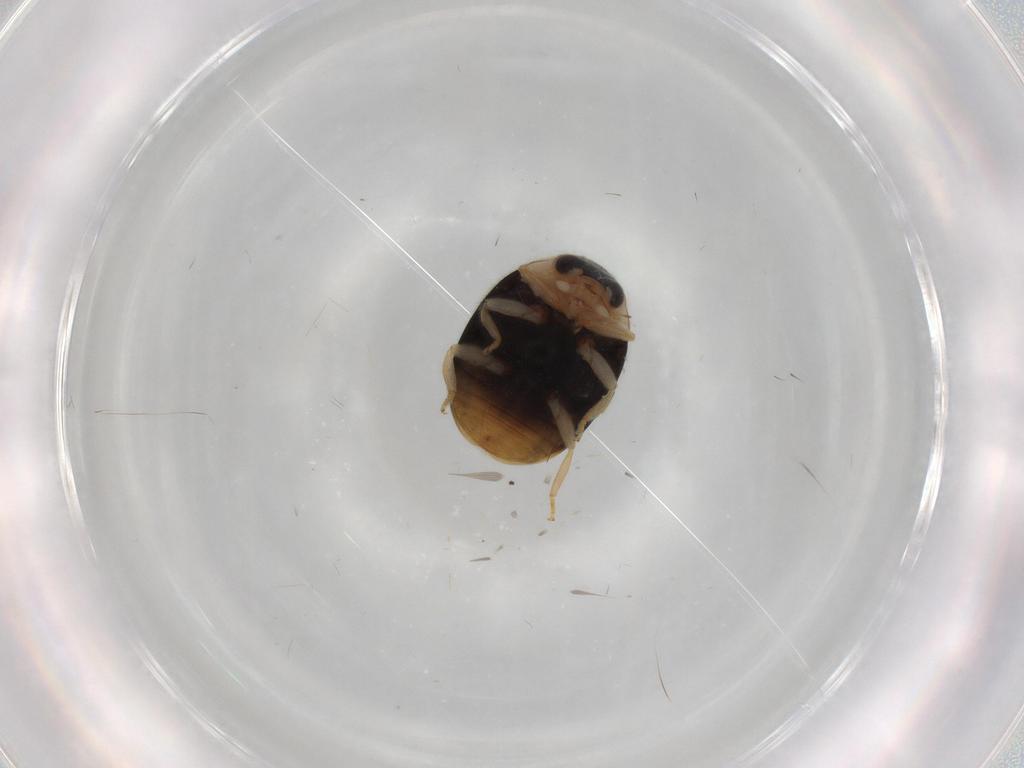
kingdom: Animalia
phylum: Arthropoda
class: Insecta
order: Coleoptera
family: Coccinellidae
